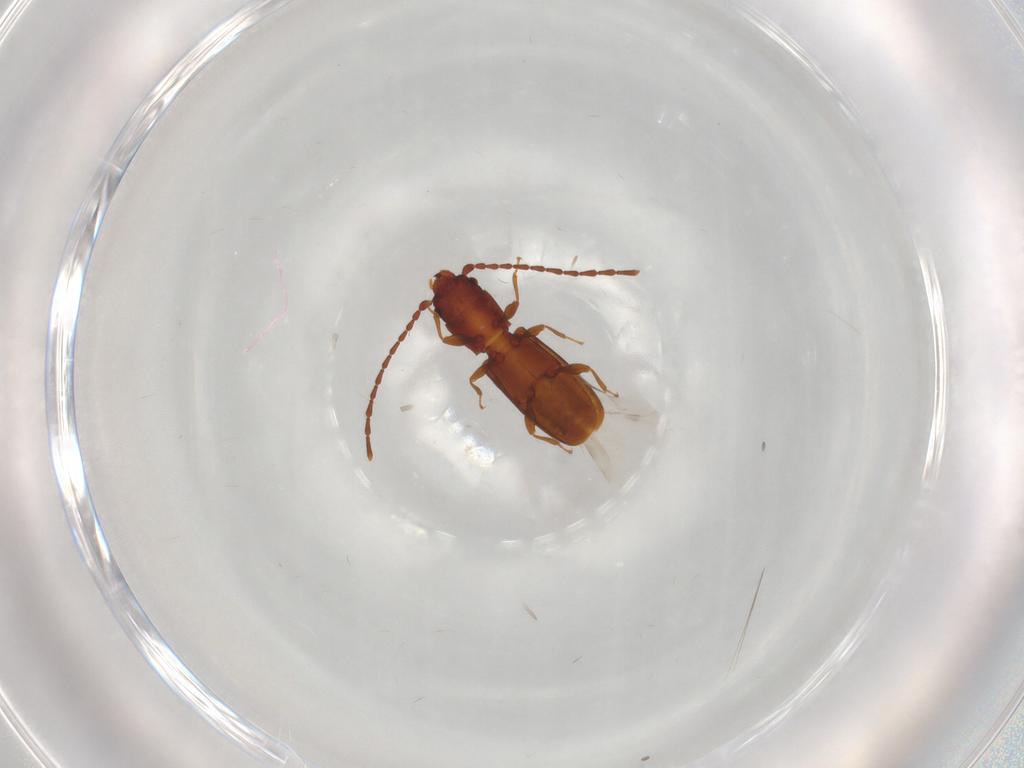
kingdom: Animalia
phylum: Arthropoda
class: Insecta
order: Coleoptera
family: Laemophloeidae
